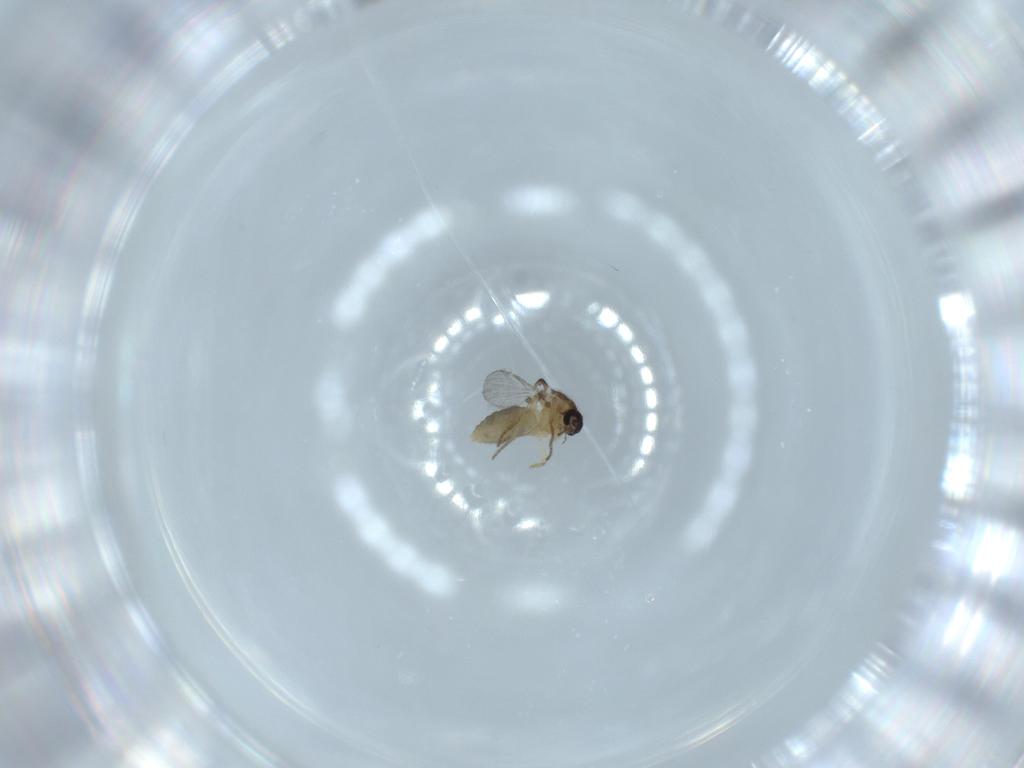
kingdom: Animalia
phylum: Arthropoda
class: Insecta
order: Diptera
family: Ceratopogonidae
